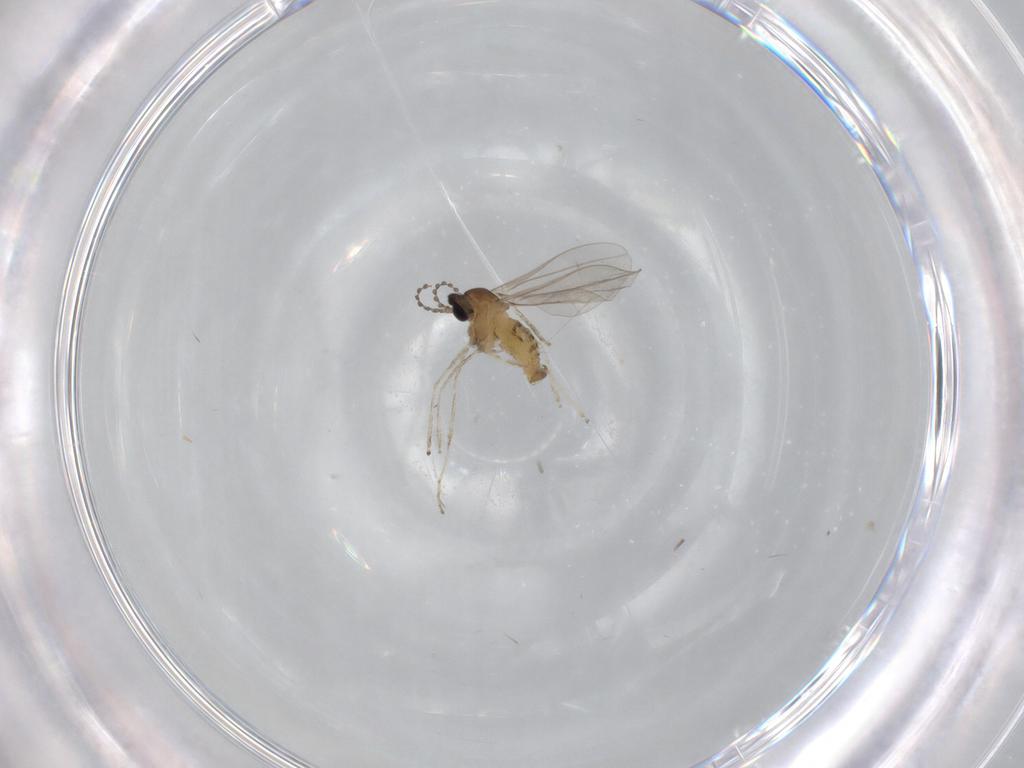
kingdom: Animalia
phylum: Arthropoda
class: Insecta
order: Diptera
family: Cecidomyiidae
